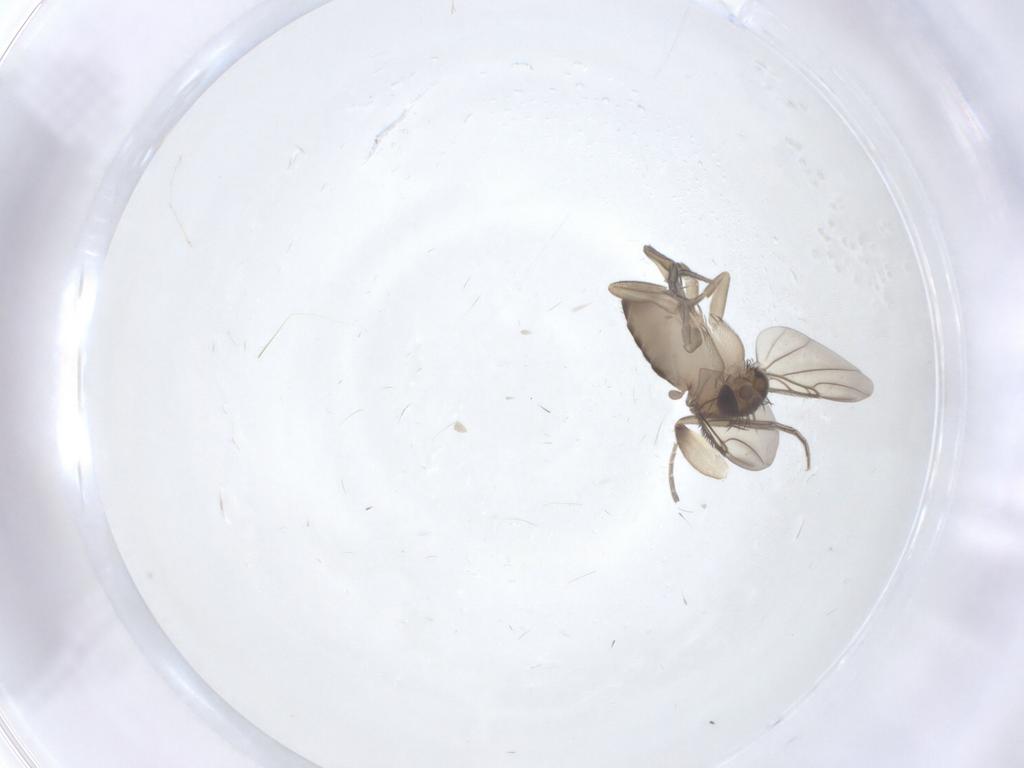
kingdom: Animalia
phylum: Arthropoda
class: Insecta
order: Diptera
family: Phoridae
